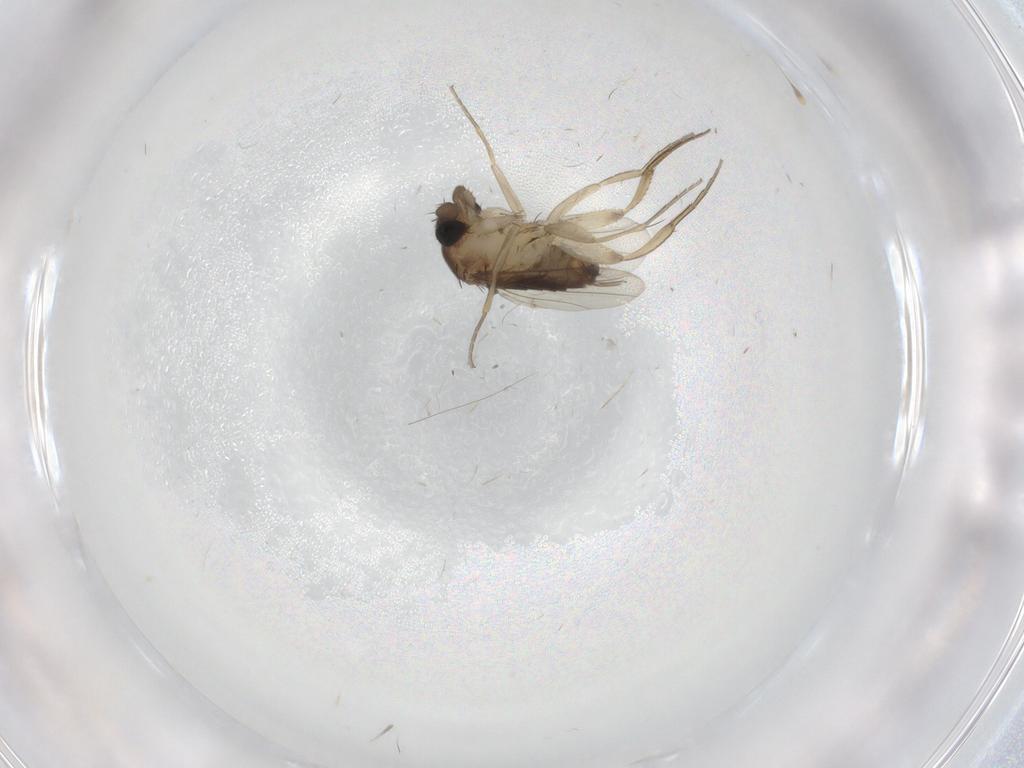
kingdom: Animalia
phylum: Arthropoda
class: Insecta
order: Diptera
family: Phoridae
